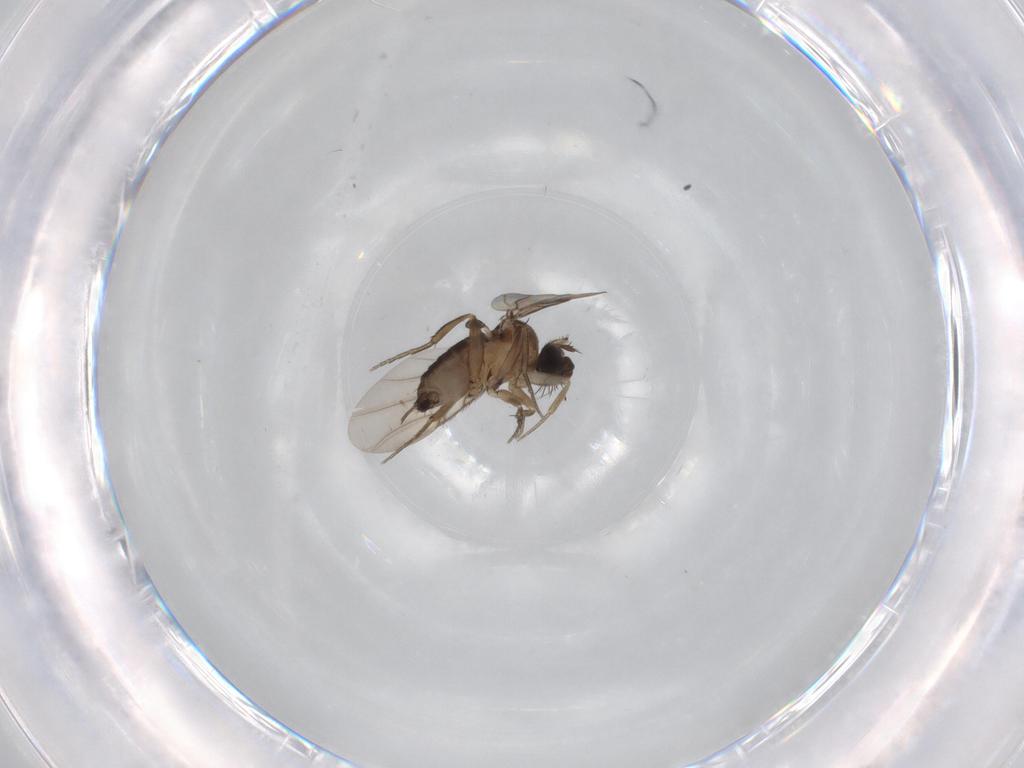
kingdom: Animalia
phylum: Arthropoda
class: Insecta
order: Diptera
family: Phoridae
